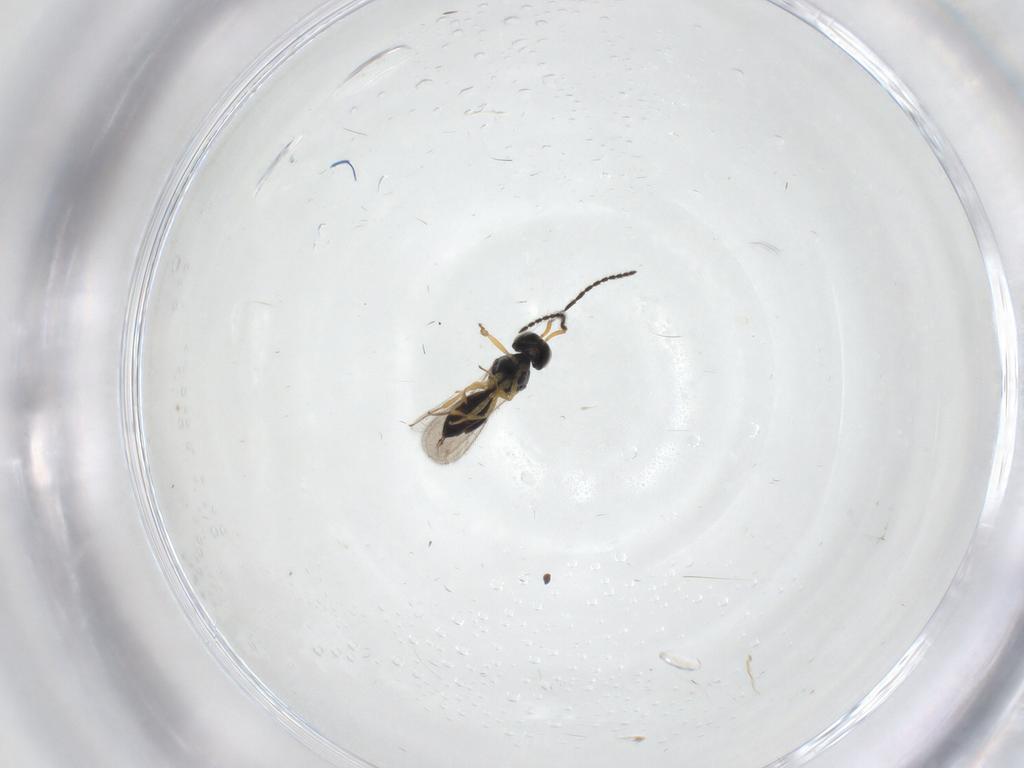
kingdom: Animalia
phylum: Arthropoda
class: Insecta
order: Hymenoptera
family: Scelionidae
